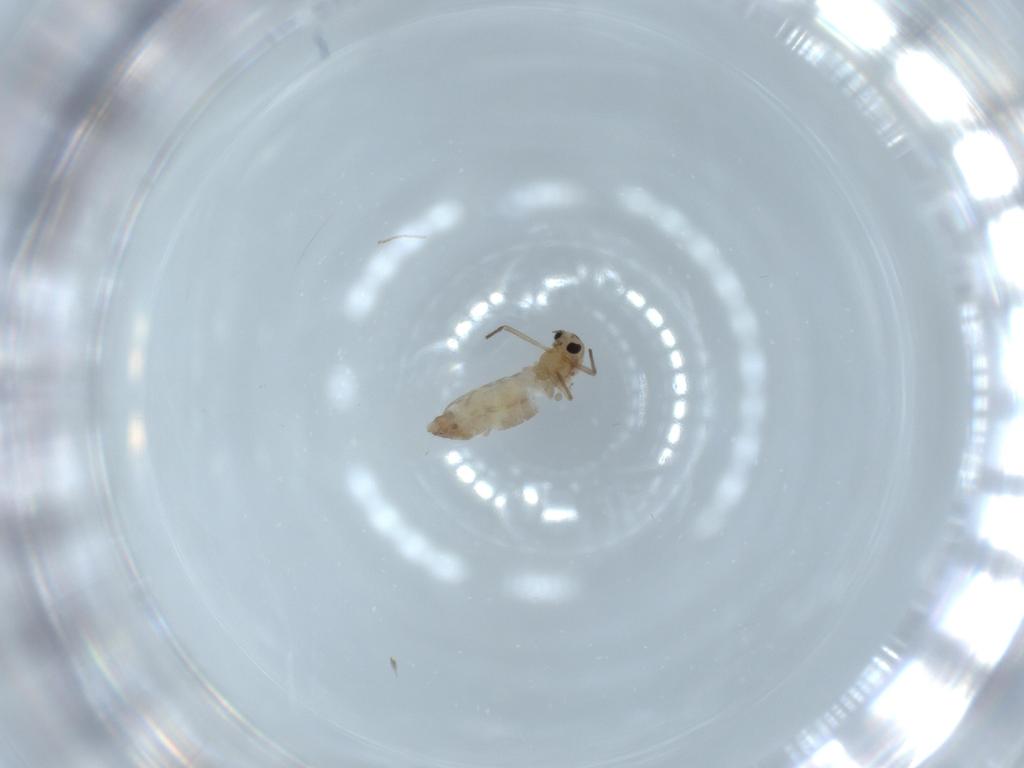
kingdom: Animalia
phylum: Arthropoda
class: Insecta
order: Diptera
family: Chironomidae
